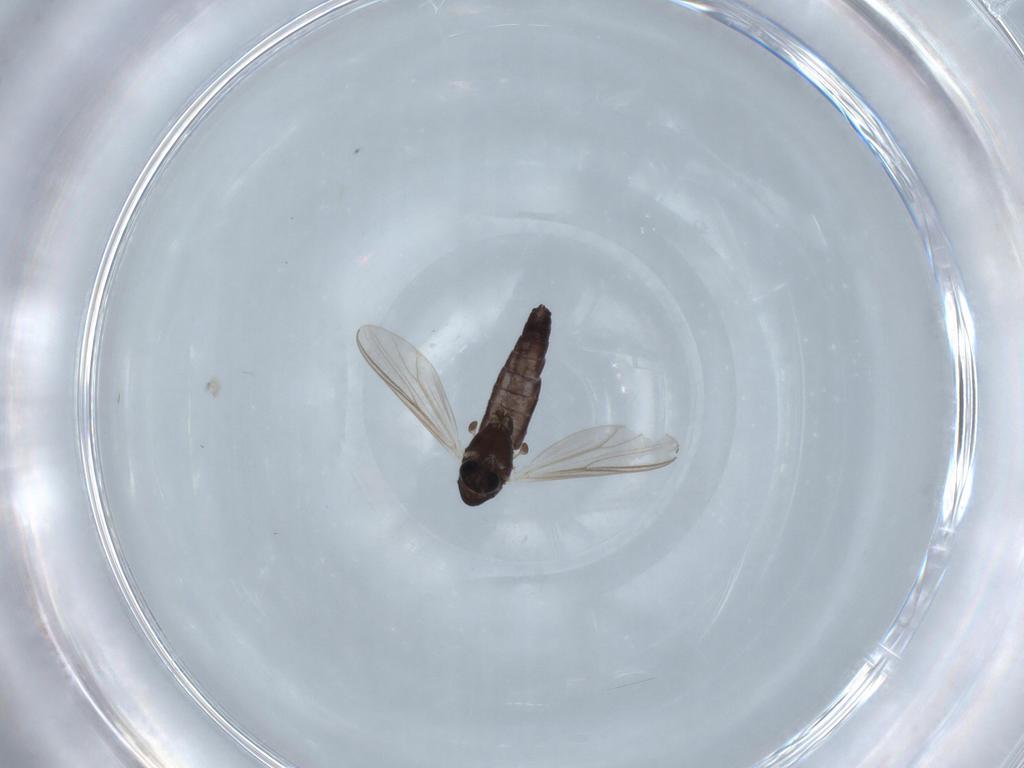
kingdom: Animalia
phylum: Arthropoda
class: Insecta
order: Diptera
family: Chironomidae
